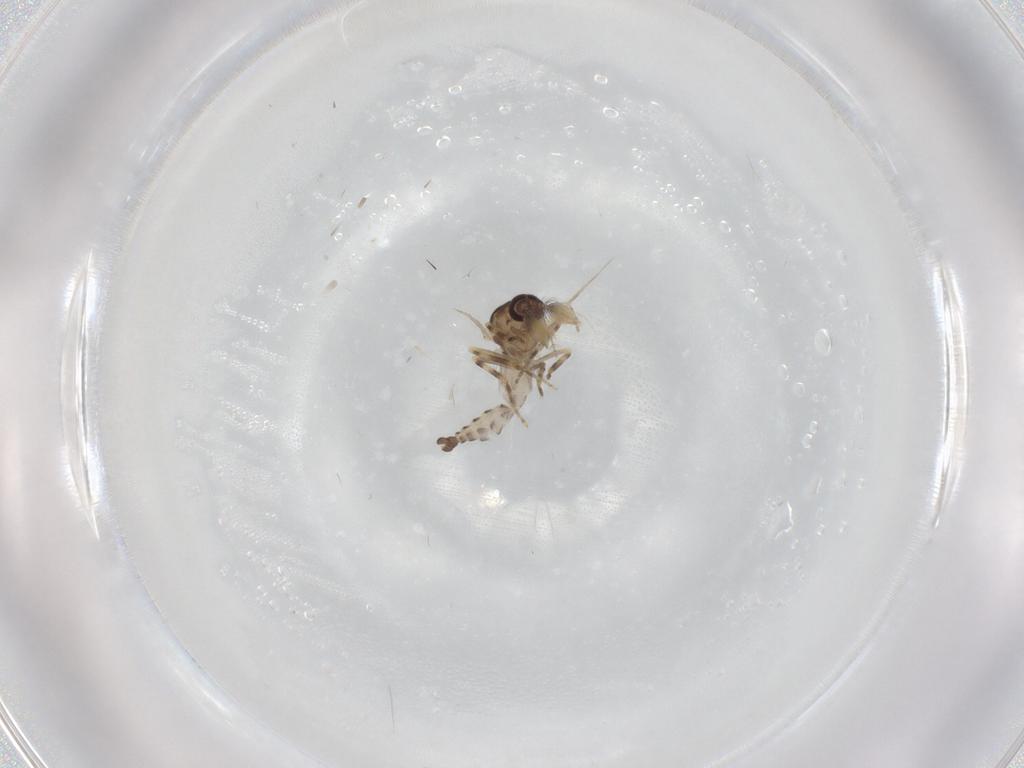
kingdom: Animalia
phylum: Arthropoda
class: Insecta
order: Diptera
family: Ceratopogonidae
